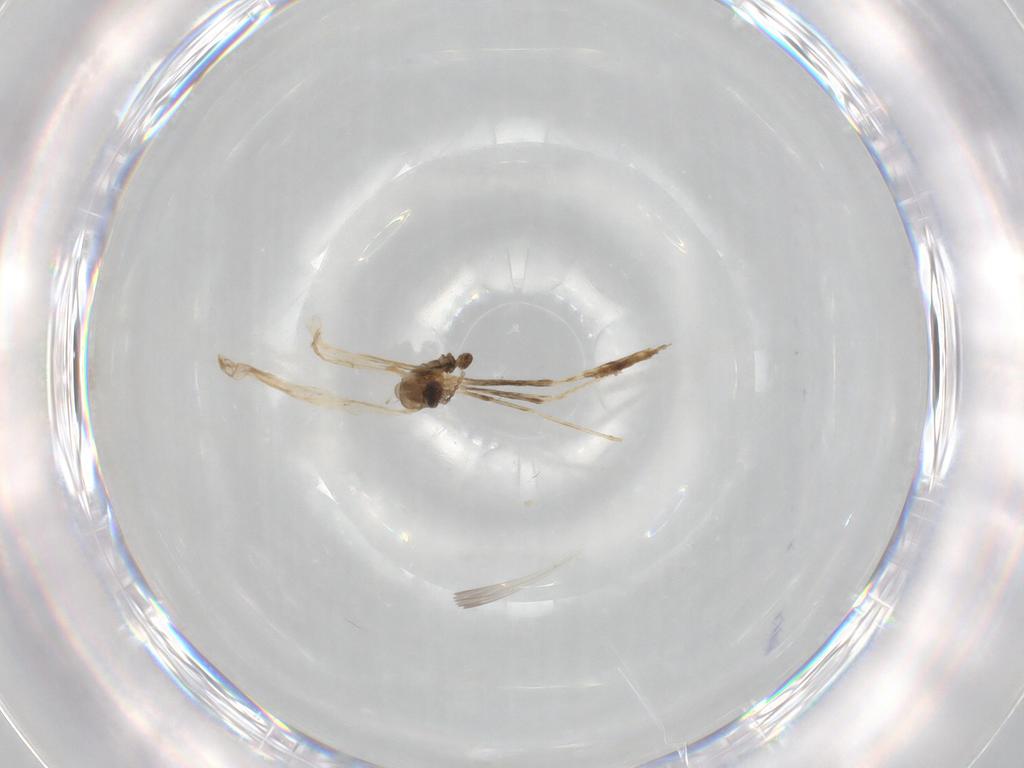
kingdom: Animalia
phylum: Arthropoda
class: Insecta
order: Diptera
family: Cecidomyiidae
